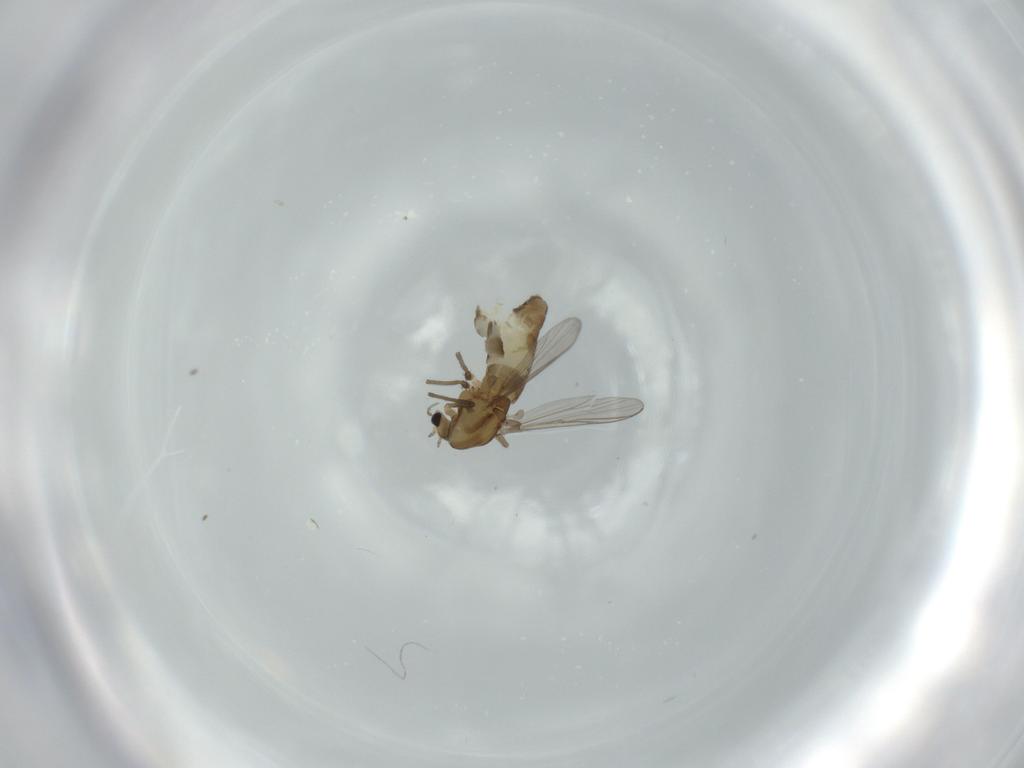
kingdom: Animalia
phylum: Arthropoda
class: Insecta
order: Diptera
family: Chironomidae
